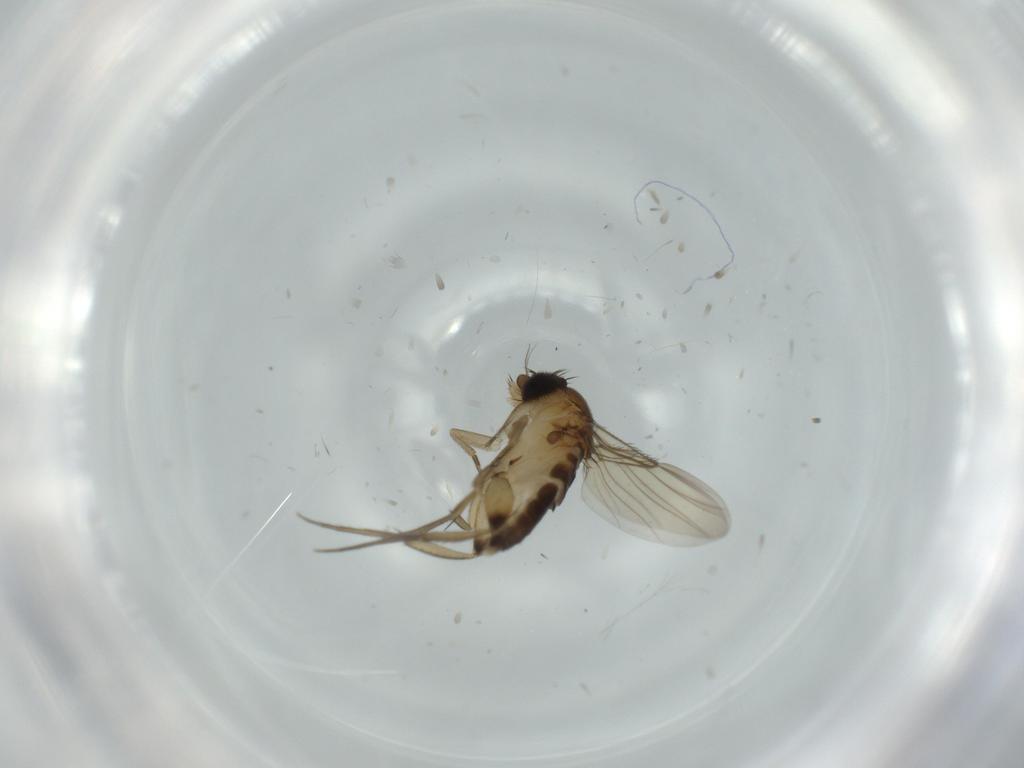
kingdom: Animalia
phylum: Arthropoda
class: Insecta
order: Diptera
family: Phoridae
